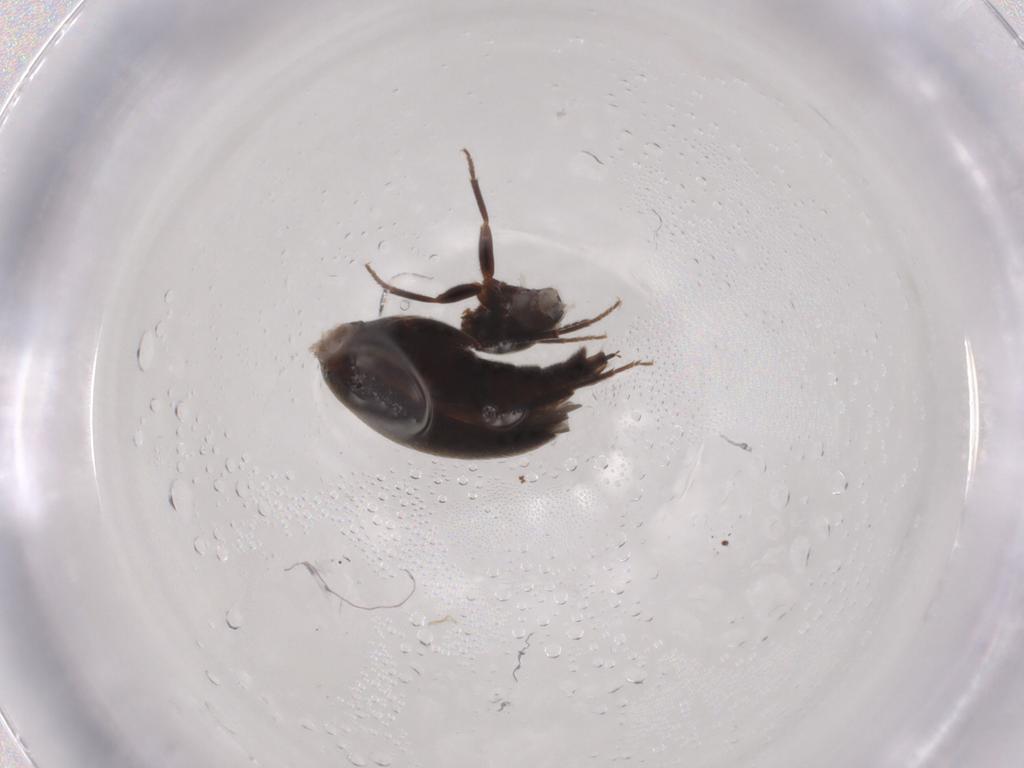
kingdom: Animalia
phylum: Arthropoda
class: Insecta
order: Coleoptera
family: Melandryidae
